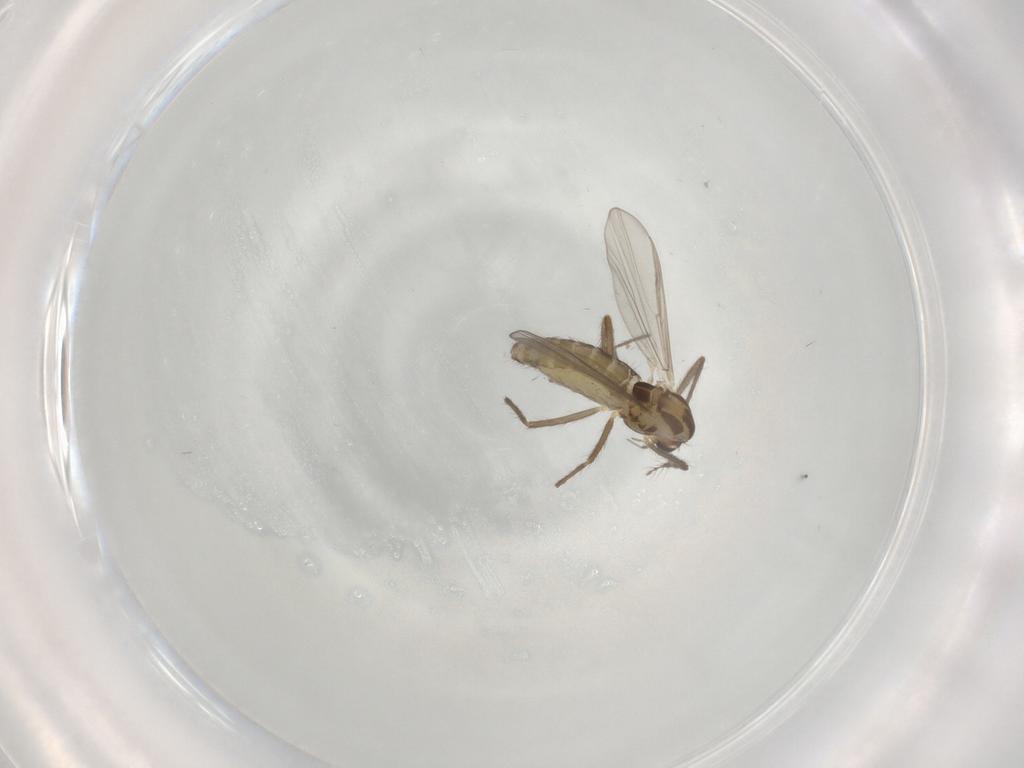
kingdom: Animalia
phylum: Arthropoda
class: Insecta
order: Diptera
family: Chironomidae
